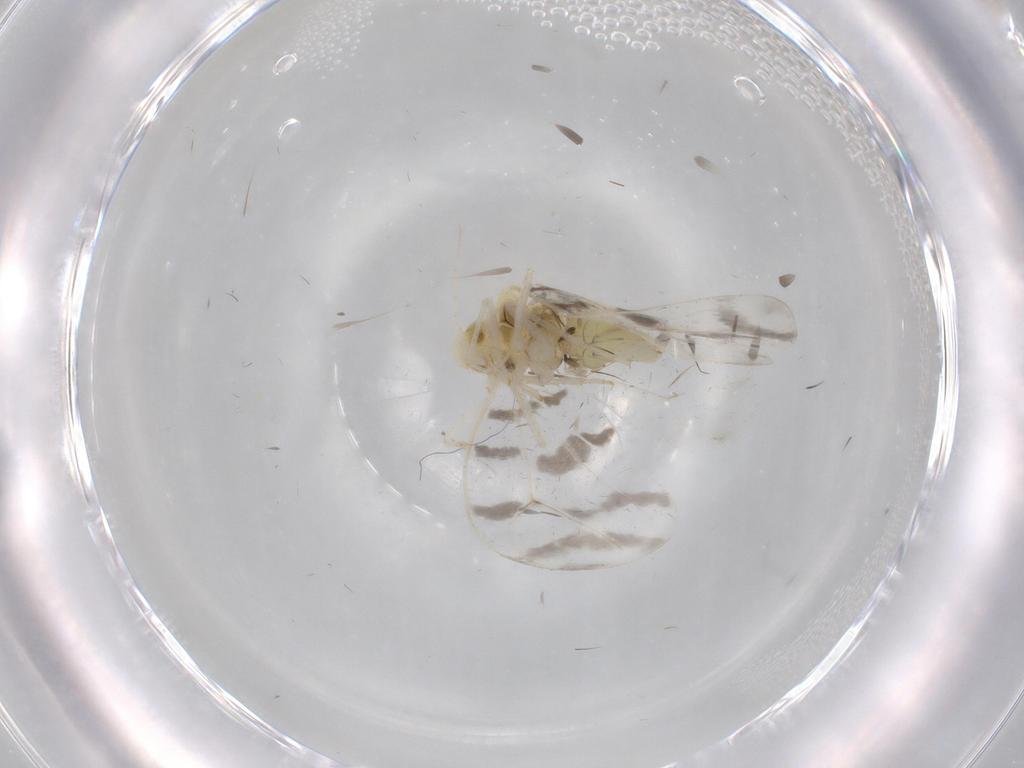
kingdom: Animalia
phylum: Arthropoda
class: Insecta
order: Hemiptera
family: Aleyrodidae
